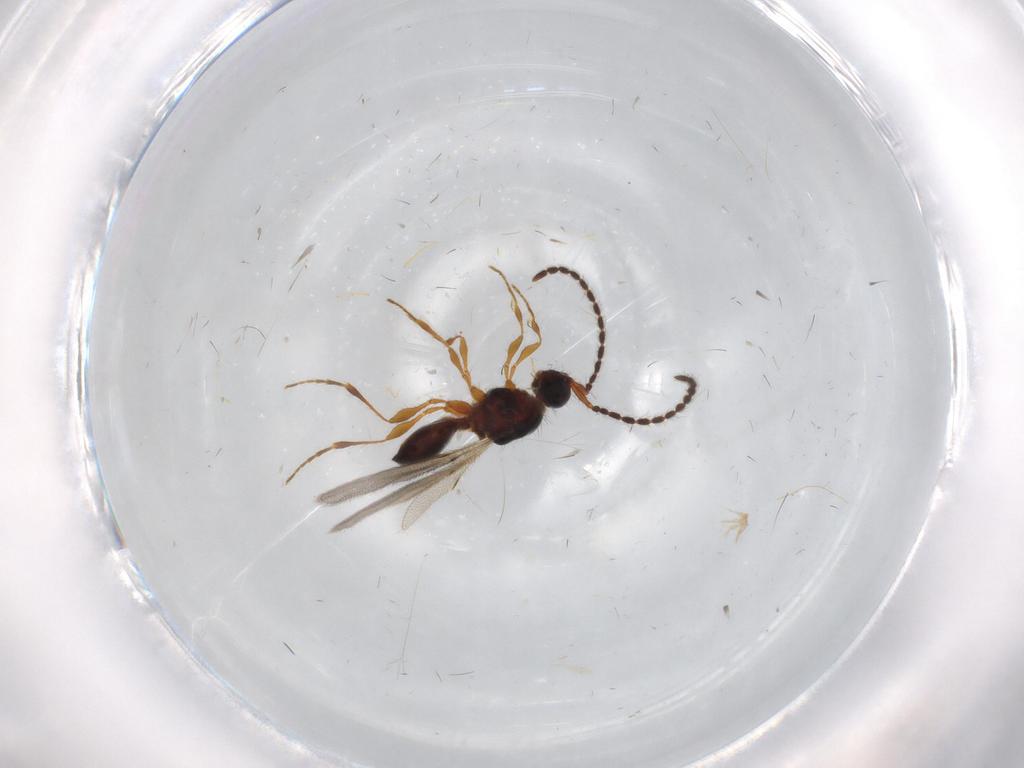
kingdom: Animalia
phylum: Arthropoda
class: Insecta
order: Hymenoptera
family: Diapriidae
